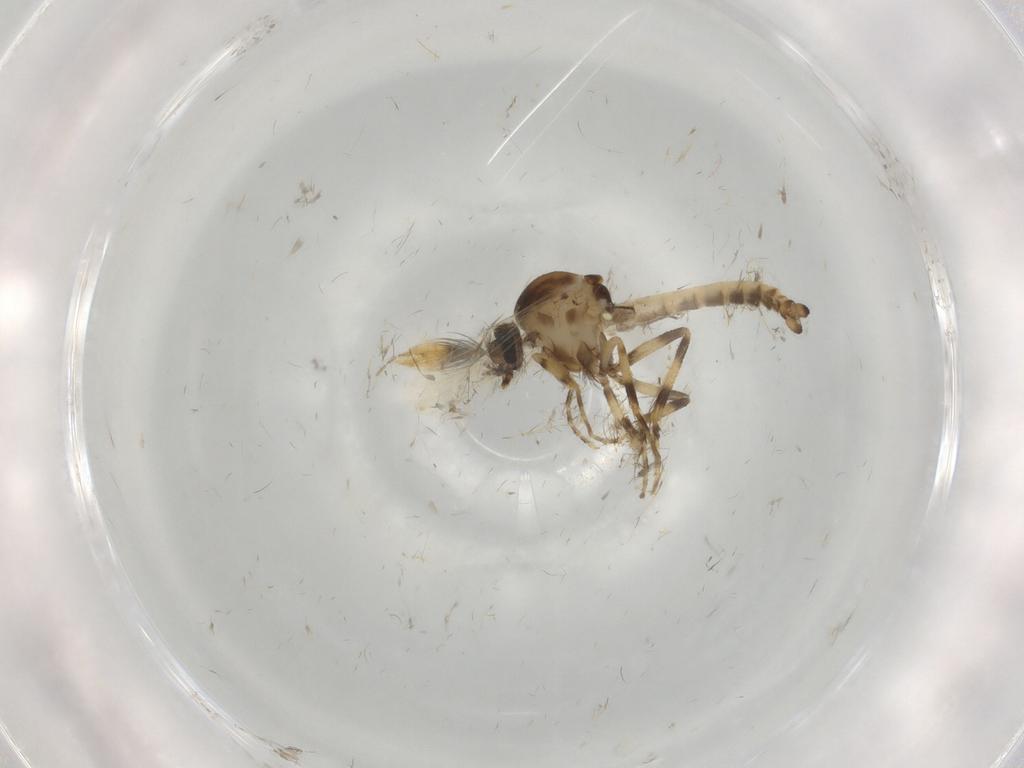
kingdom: Animalia
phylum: Arthropoda
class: Insecta
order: Diptera
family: Ceratopogonidae
